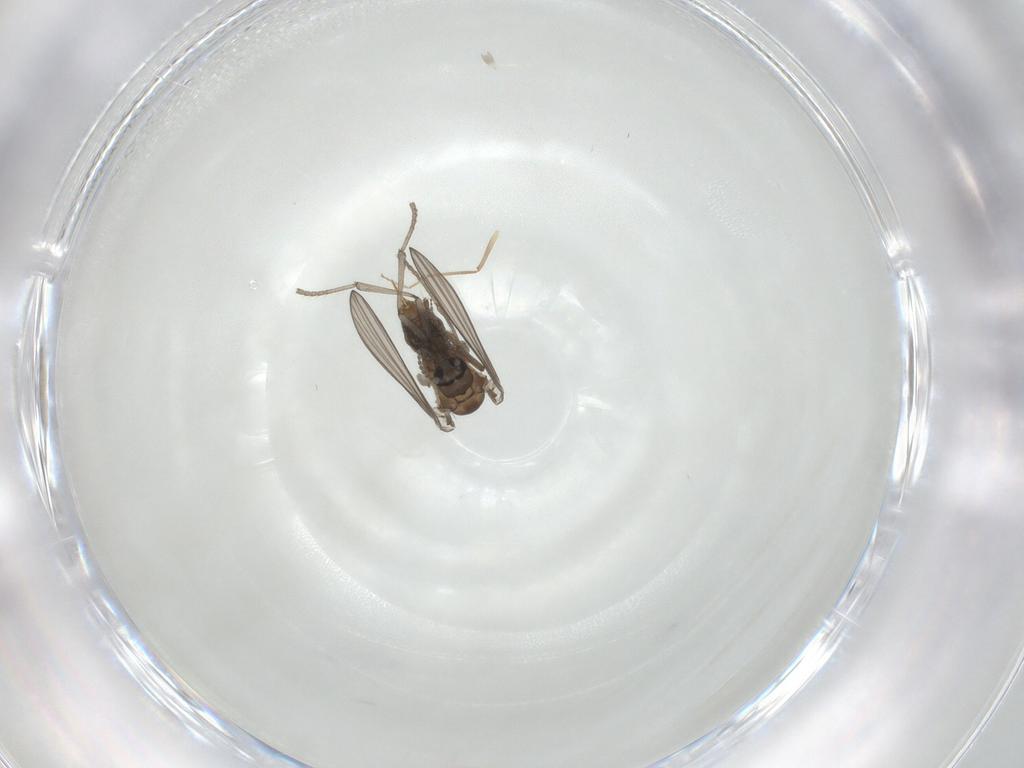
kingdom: Animalia
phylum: Arthropoda
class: Insecta
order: Diptera
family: Psychodidae
